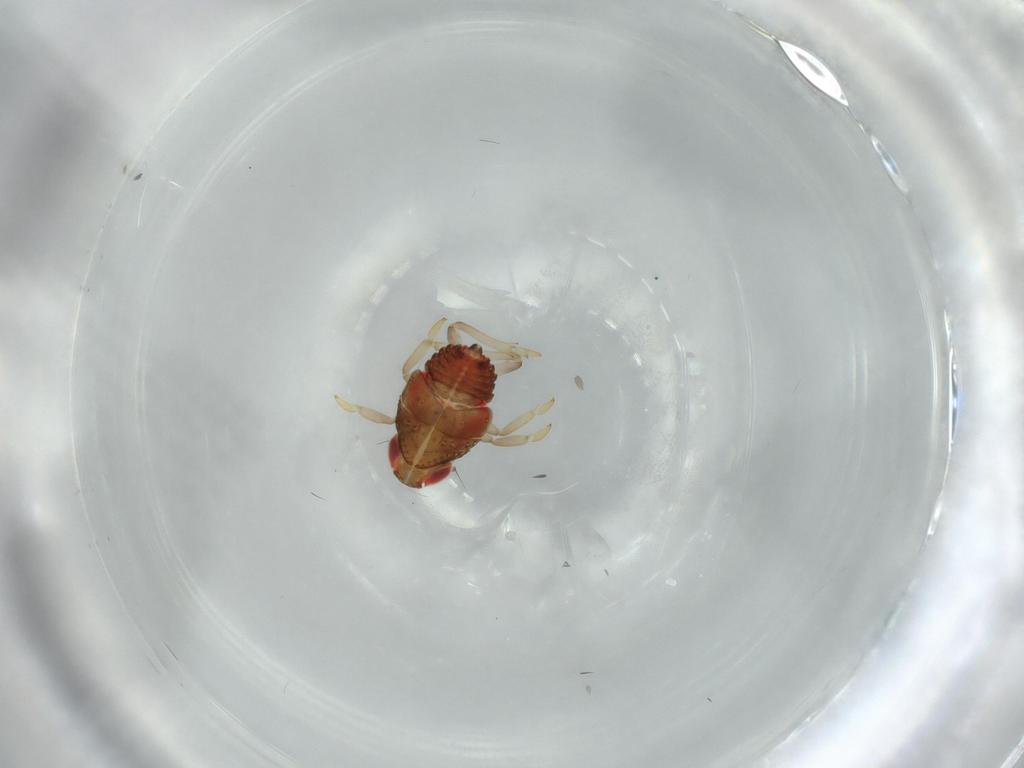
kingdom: Animalia
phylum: Arthropoda
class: Insecta
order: Hemiptera
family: Issidae
